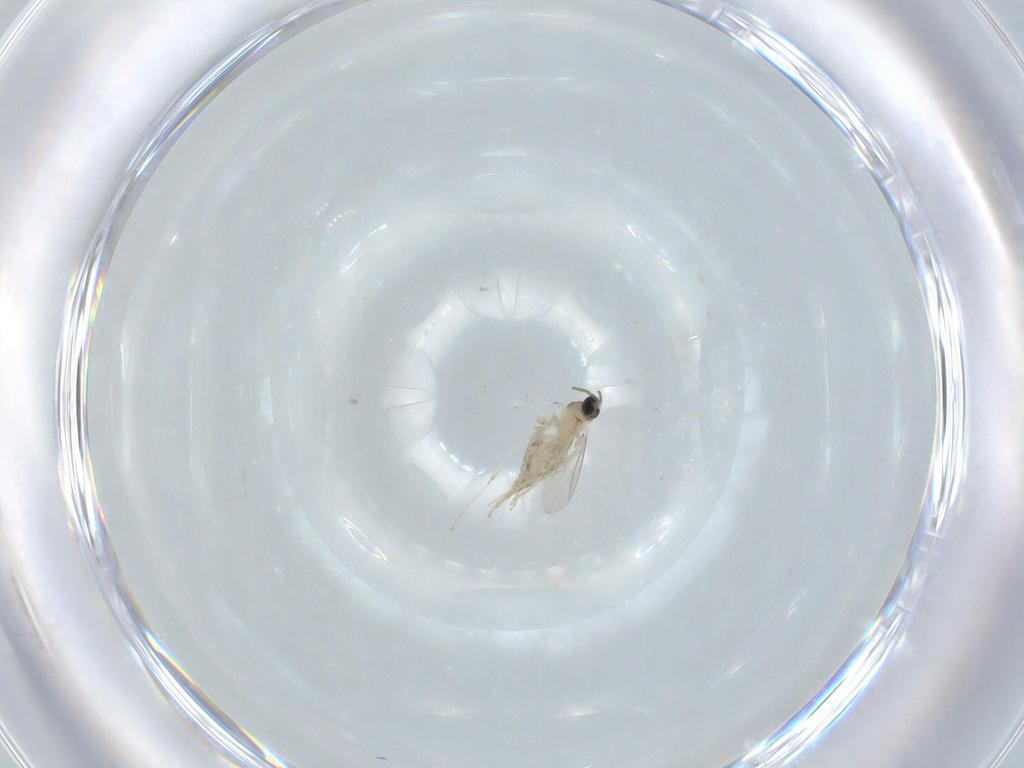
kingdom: Animalia
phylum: Arthropoda
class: Insecta
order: Diptera
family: Cecidomyiidae
